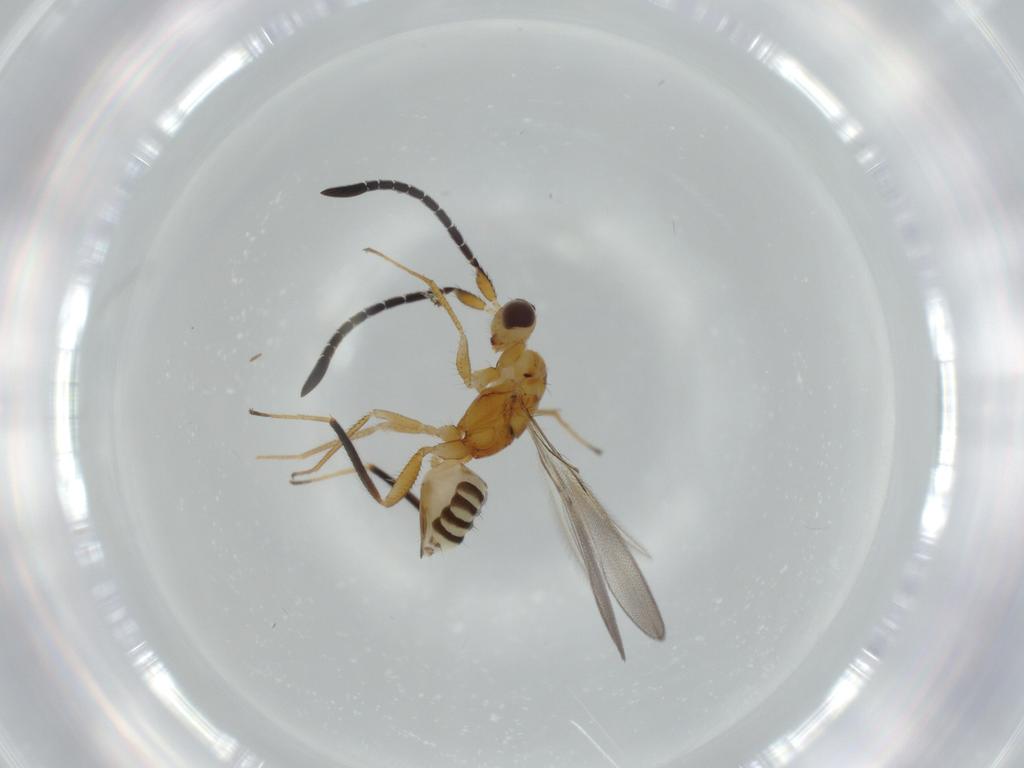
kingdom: Animalia
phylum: Arthropoda
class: Insecta
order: Hymenoptera
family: Mymaridae
